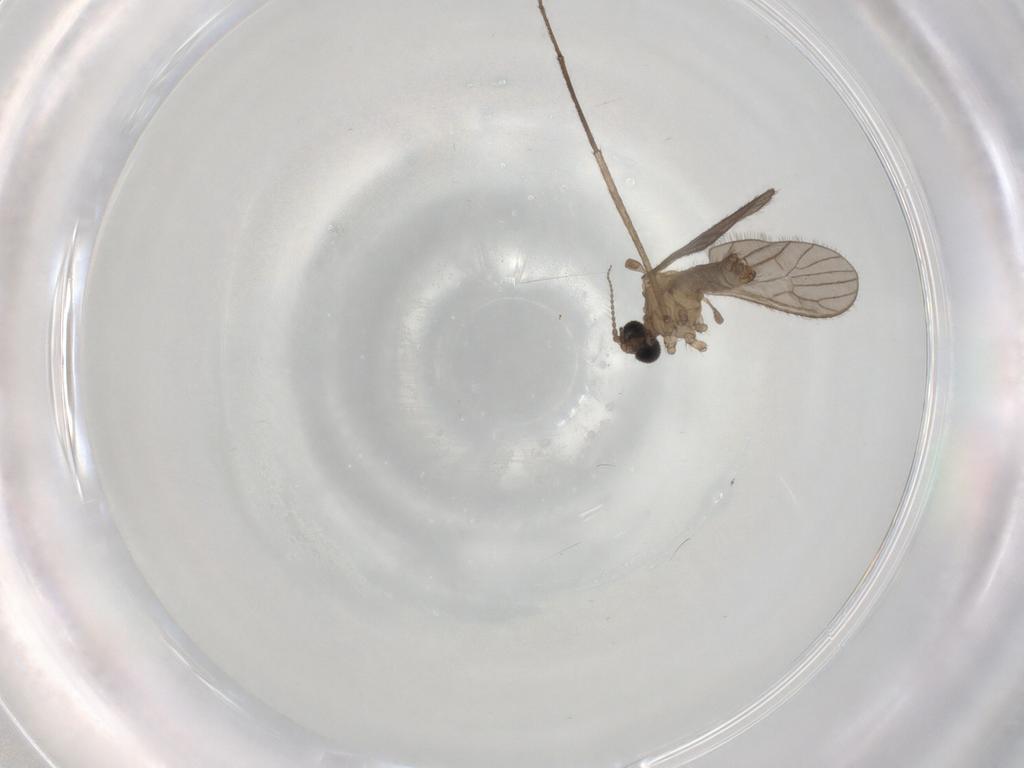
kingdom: Animalia
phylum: Arthropoda
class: Insecta
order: Diptera
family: Limoniidae
